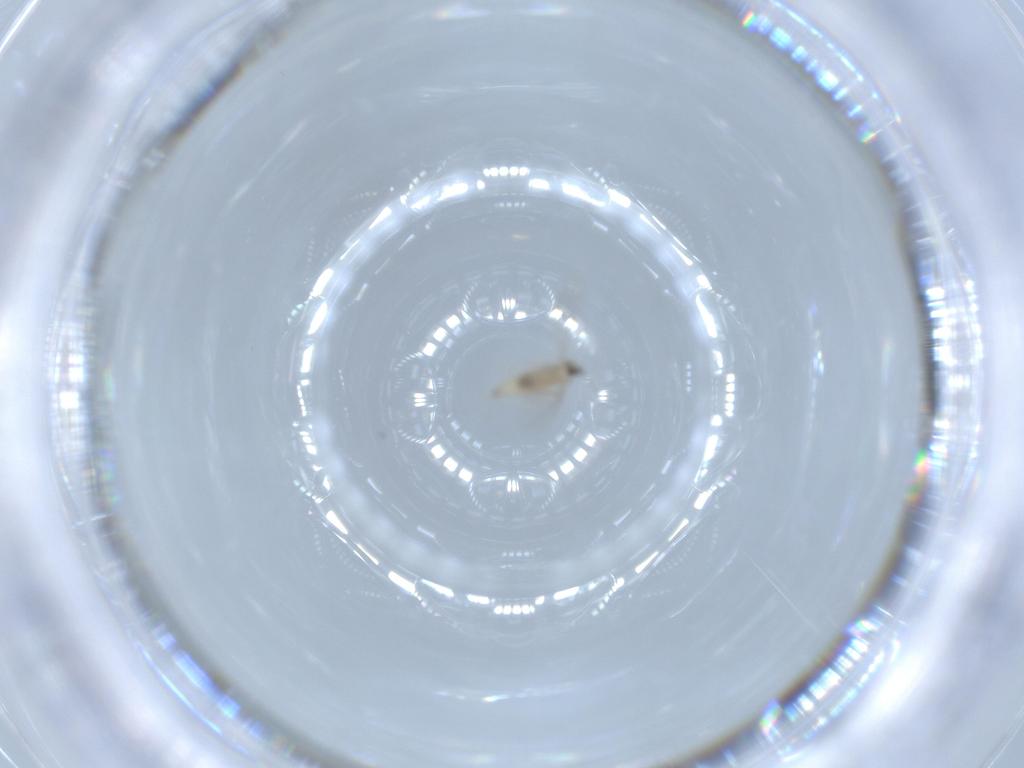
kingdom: Animalia
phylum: Arthropoda
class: Insecta
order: Diptera
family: Cecidomyiidae
